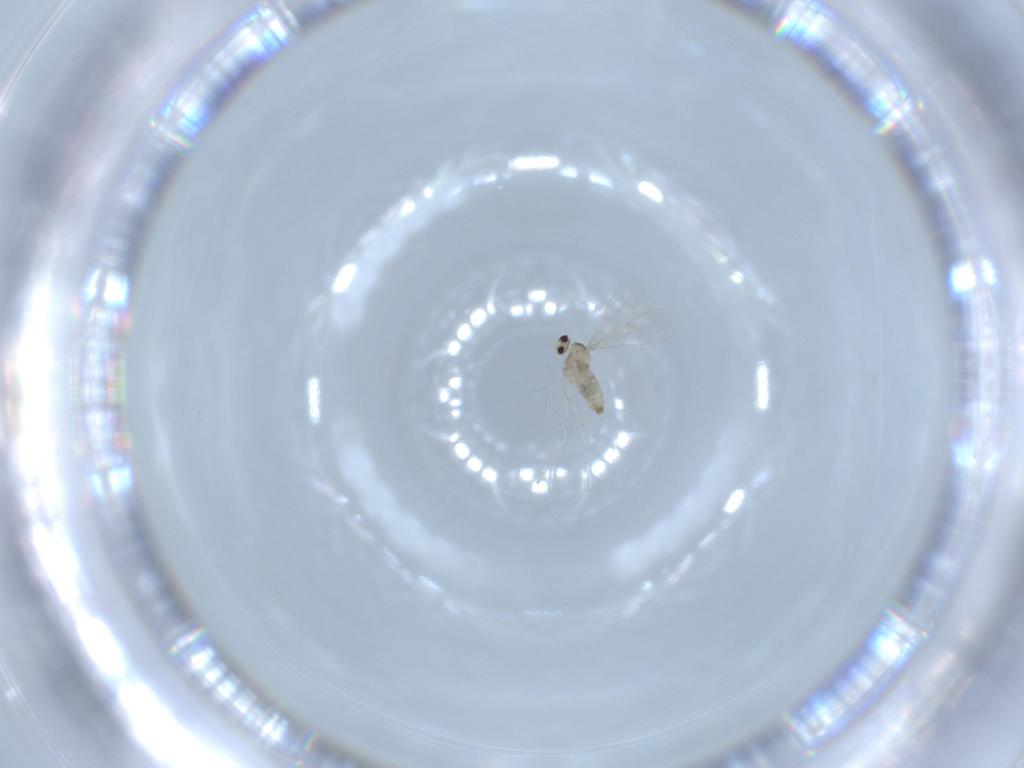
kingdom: Animalia
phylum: Arthropoda
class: Insecta
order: Diptera
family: Cecidomyiidae
